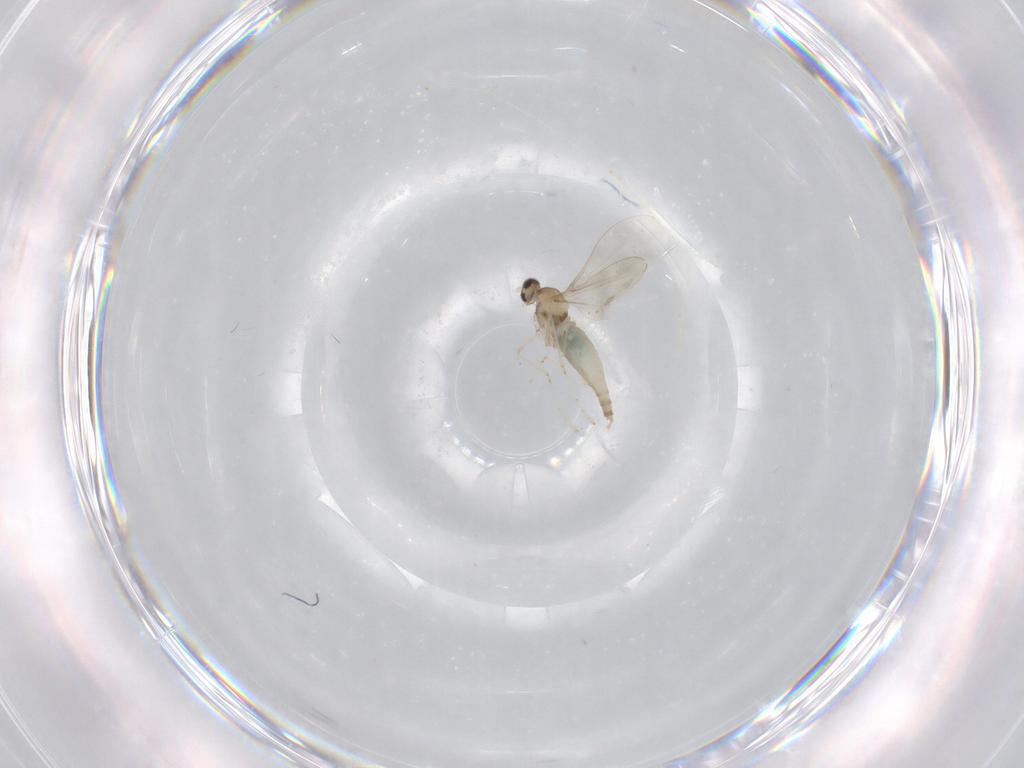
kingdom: Animalia
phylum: Arthropoda
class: Insecta
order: Diptera
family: Cecidomyiidae
